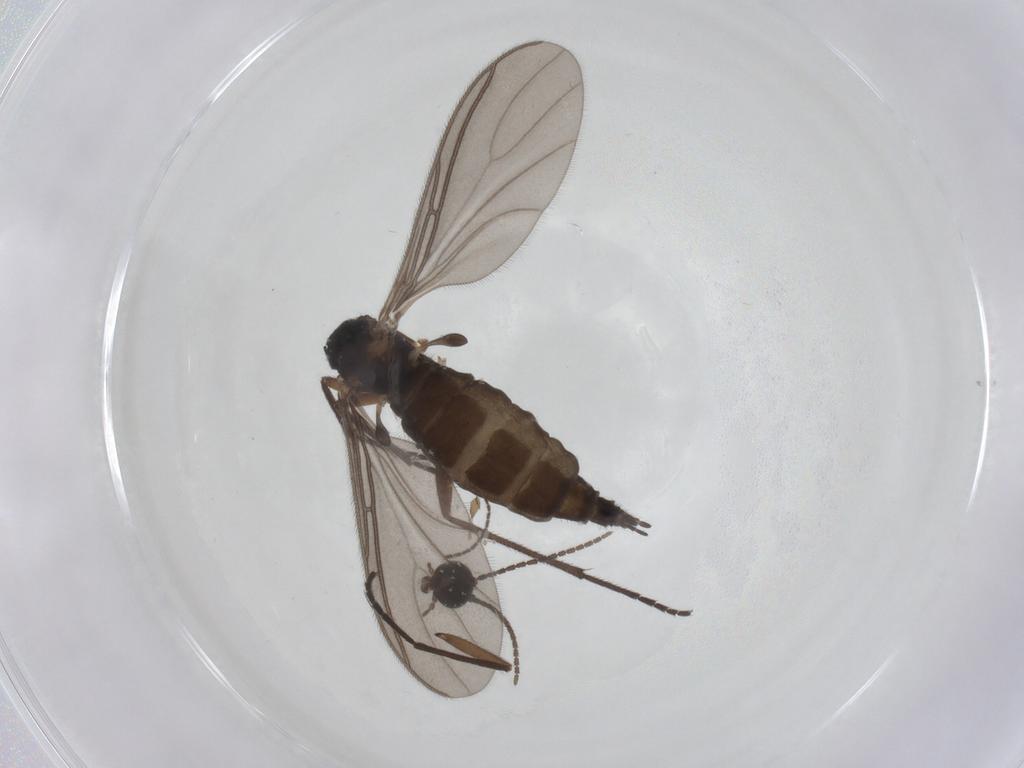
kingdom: Animalia
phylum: Arthropoda
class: Insecta
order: Diptera
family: Sciaridae
